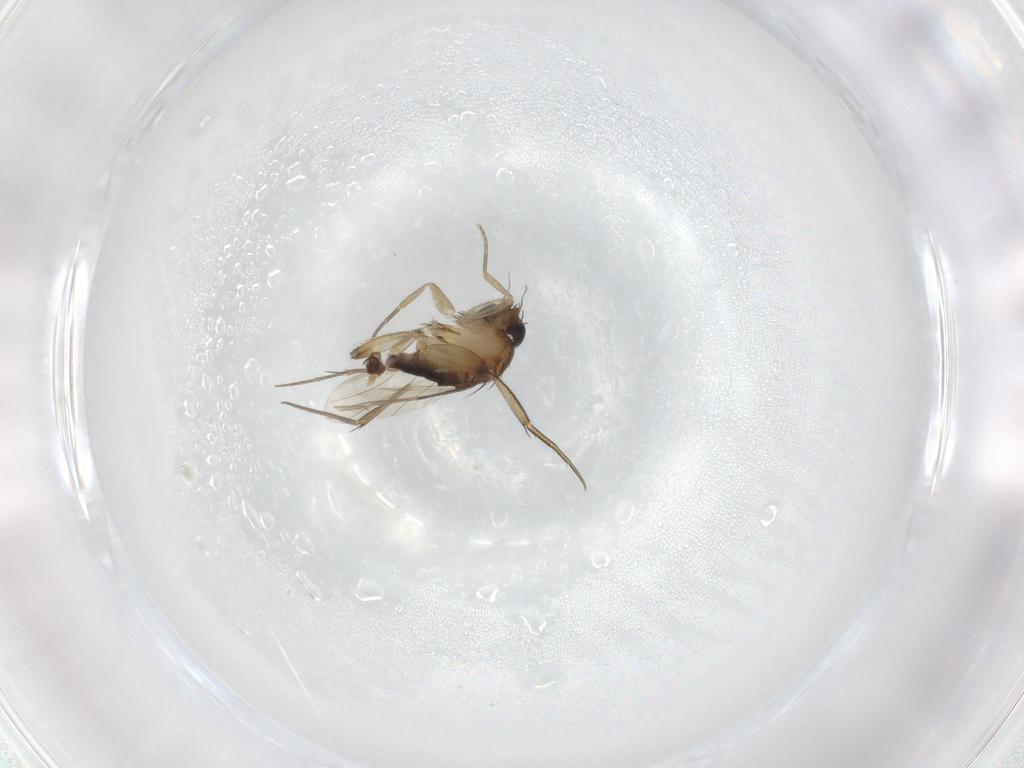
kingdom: Animalia
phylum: Arthropoda
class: Insecta
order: Diptera
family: Phoridae
